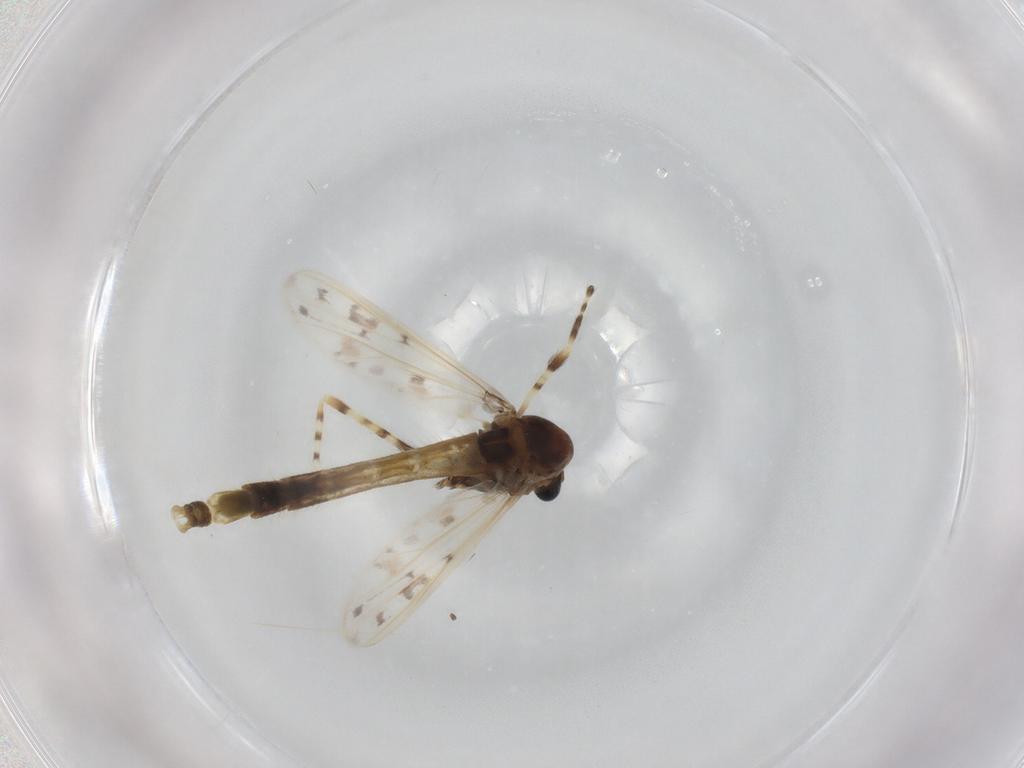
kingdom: Animalia
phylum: Arthropoda
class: Insecta
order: Diptera
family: Ceratopogonidae
